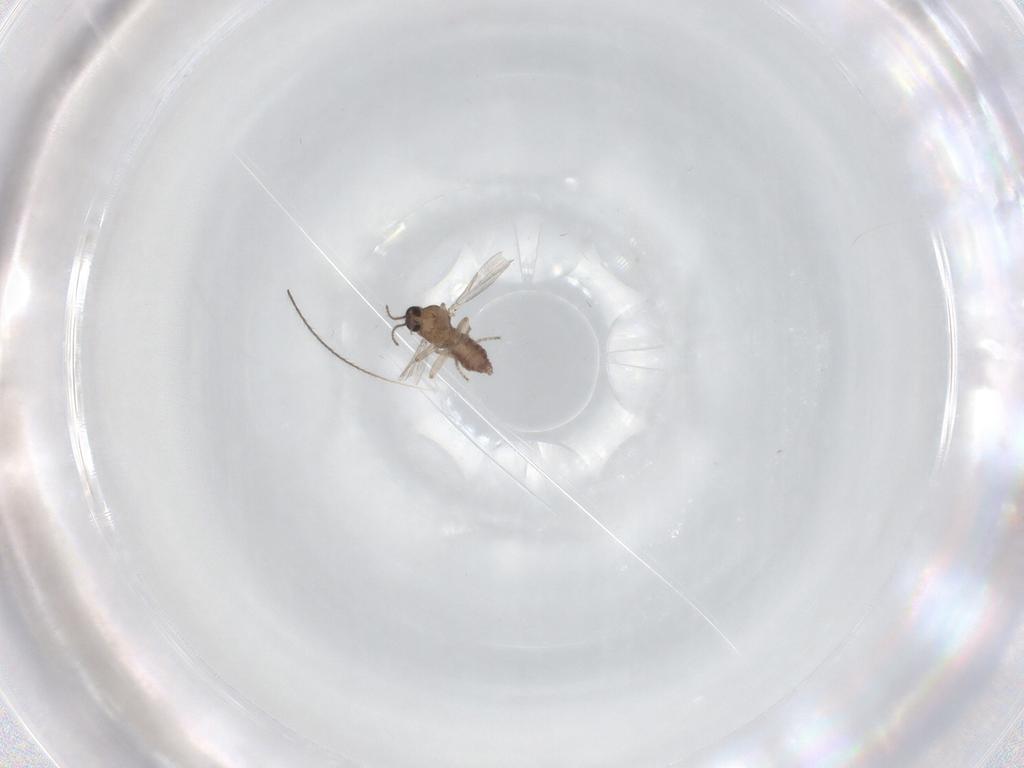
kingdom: Animalia
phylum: Arthropoda
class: Insecta
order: Diptera
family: Ceratopogonidae
